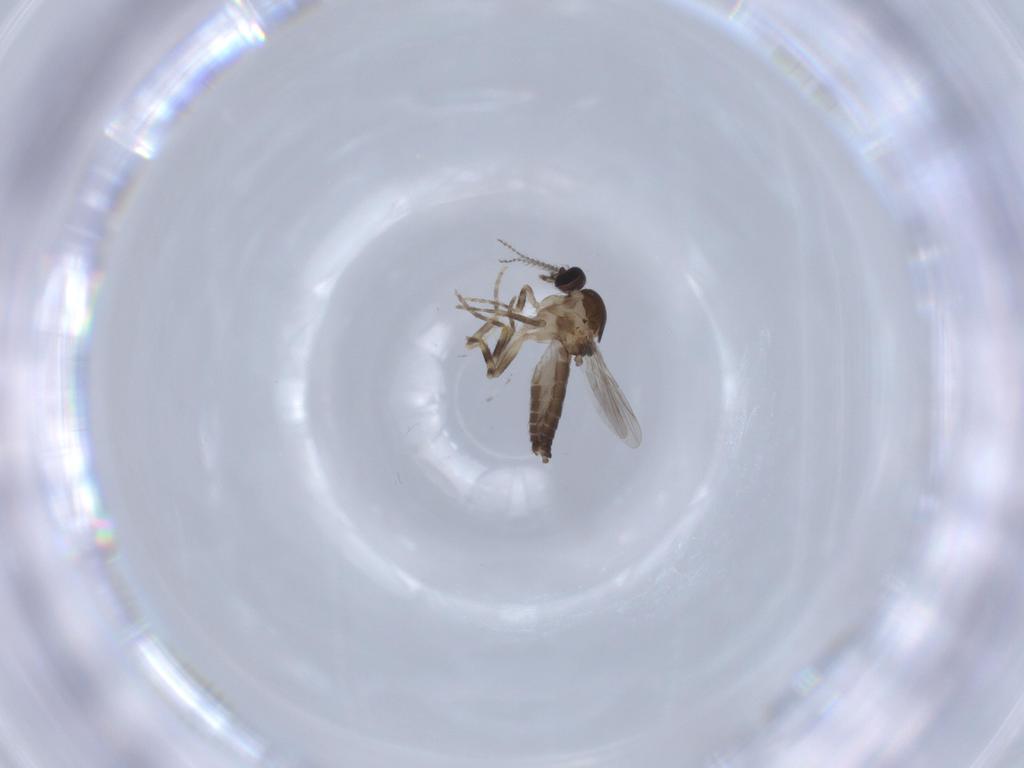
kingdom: Animalia
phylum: Arthropoda
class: Insecta
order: Diptera
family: Ceratopogonidae
